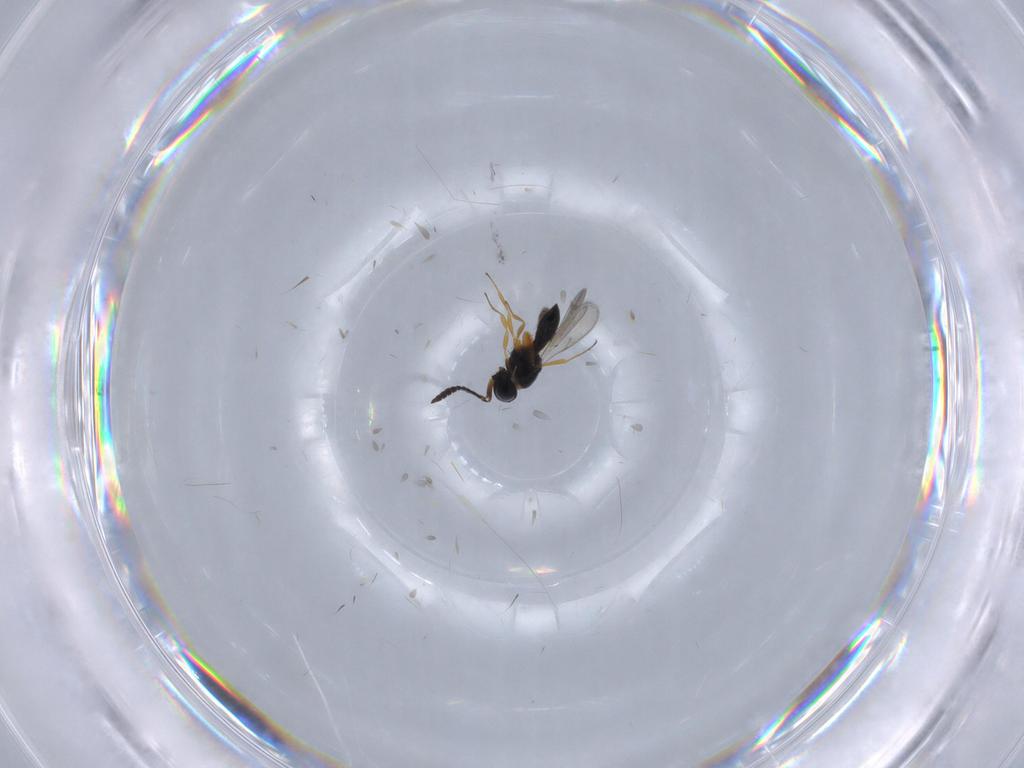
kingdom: Animalia
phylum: Arthropoda
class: Insecta
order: Hymenoptera
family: Scelionidae
